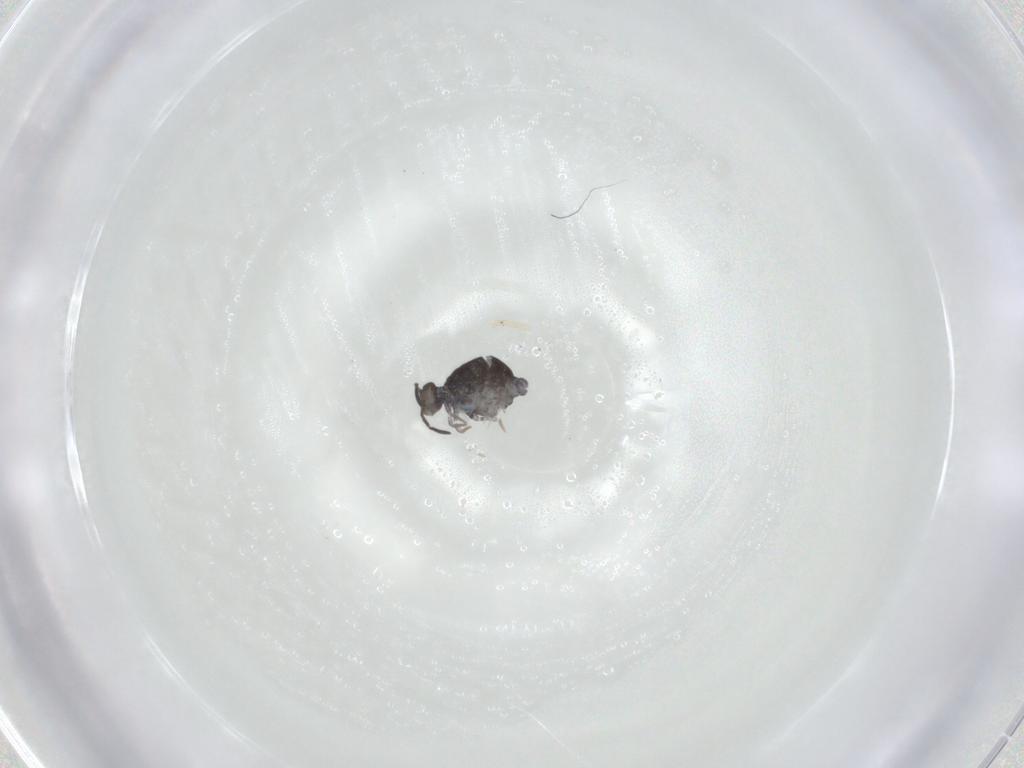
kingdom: Animalia
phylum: Arthropoda
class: Collembola
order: Symphypleona
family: Katiannidae
